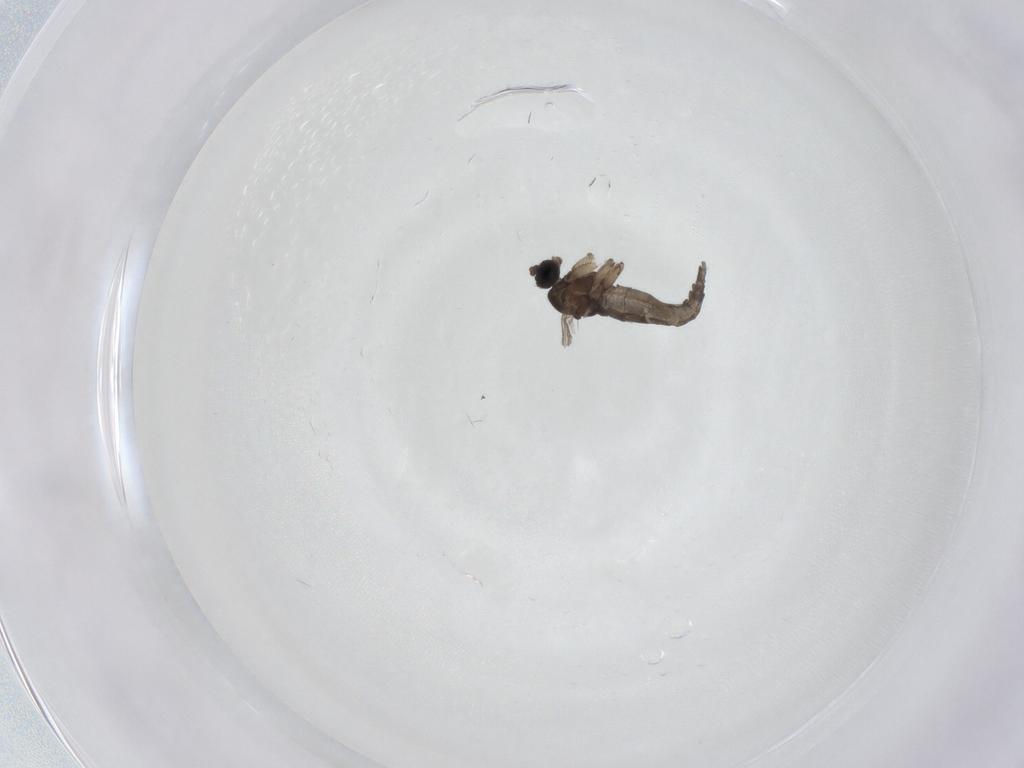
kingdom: Animalia
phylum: Arthropoda
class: Insecta
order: Diptera
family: Sciaridae
